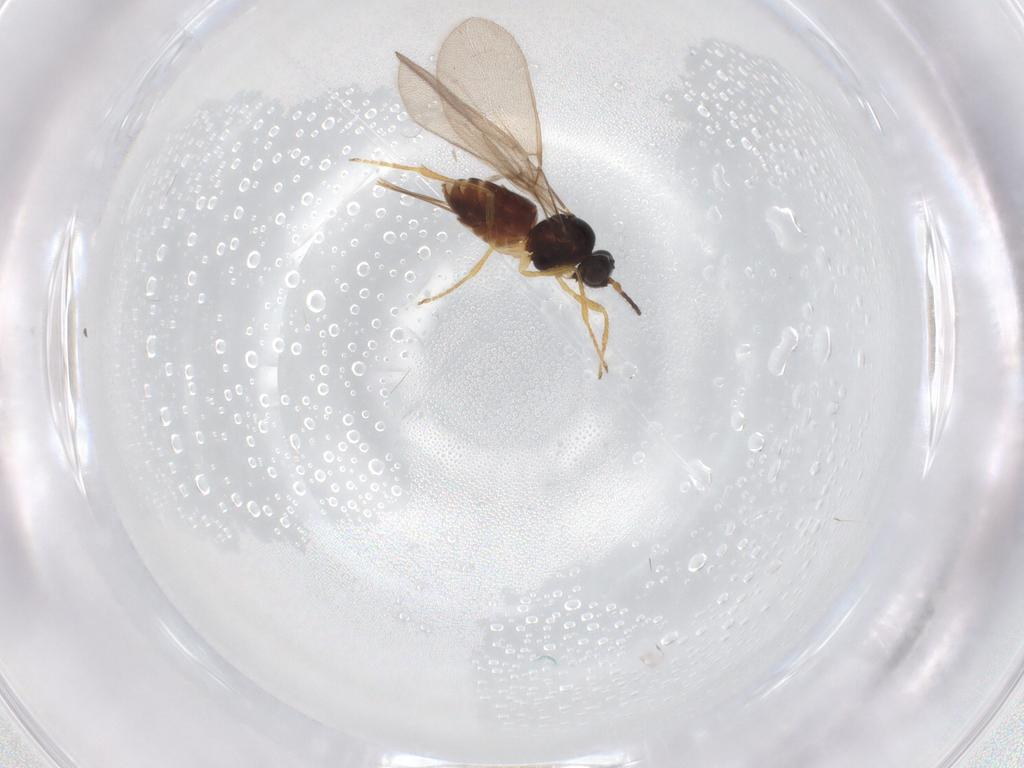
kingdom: Animalia
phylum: Arthropoda
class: Insecta
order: Hymenoptera
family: Braconidae
